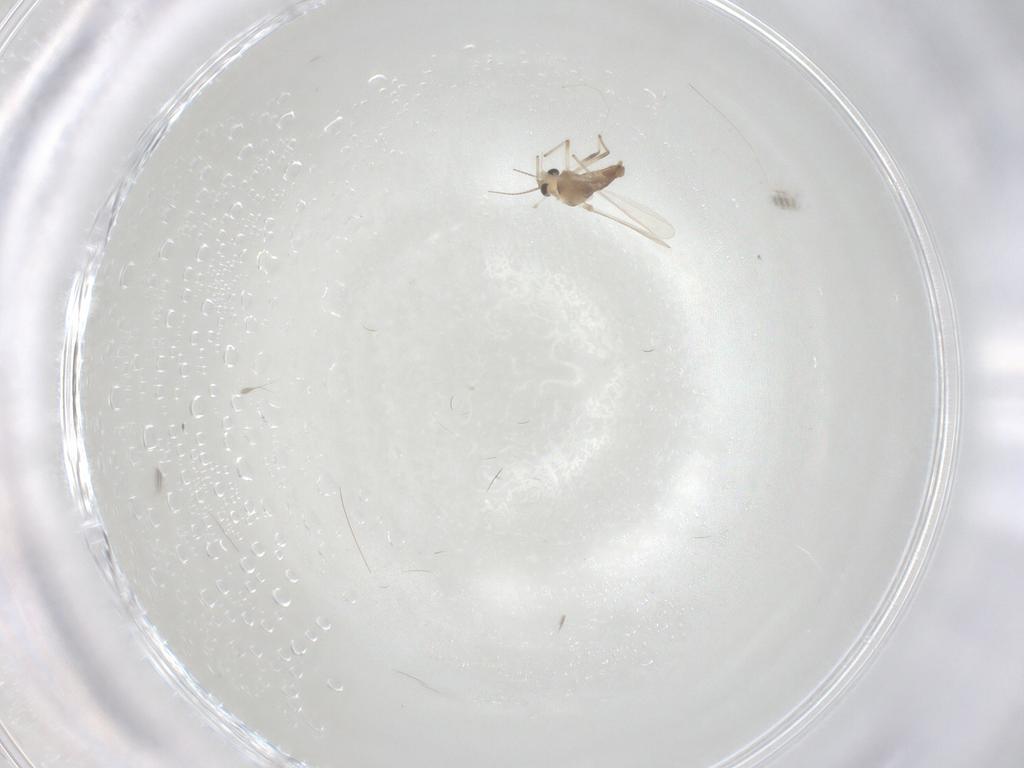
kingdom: Animalia
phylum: Arthropoda
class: Insecta
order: Diptera
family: Chironomidae
